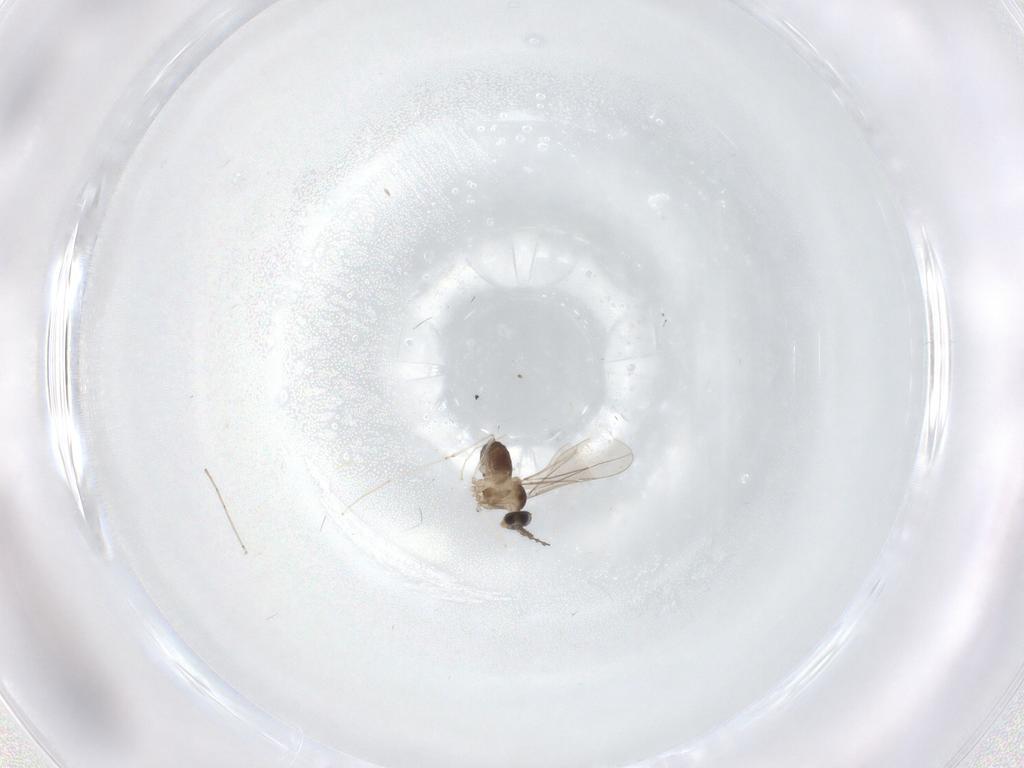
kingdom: Animalia
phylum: Arthropoda
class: Insecta
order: Diptera
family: Cecidomyiidae
